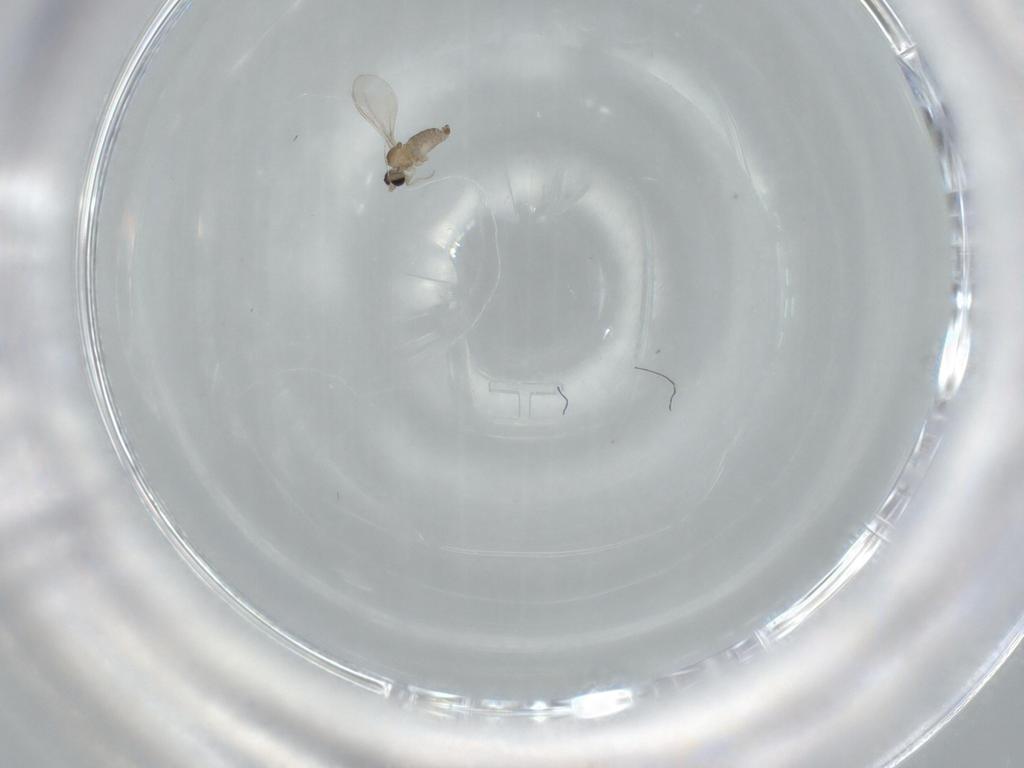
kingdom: Animalia
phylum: Arthropoda
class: Insecta
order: Diptera
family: Cecidomyiidae
